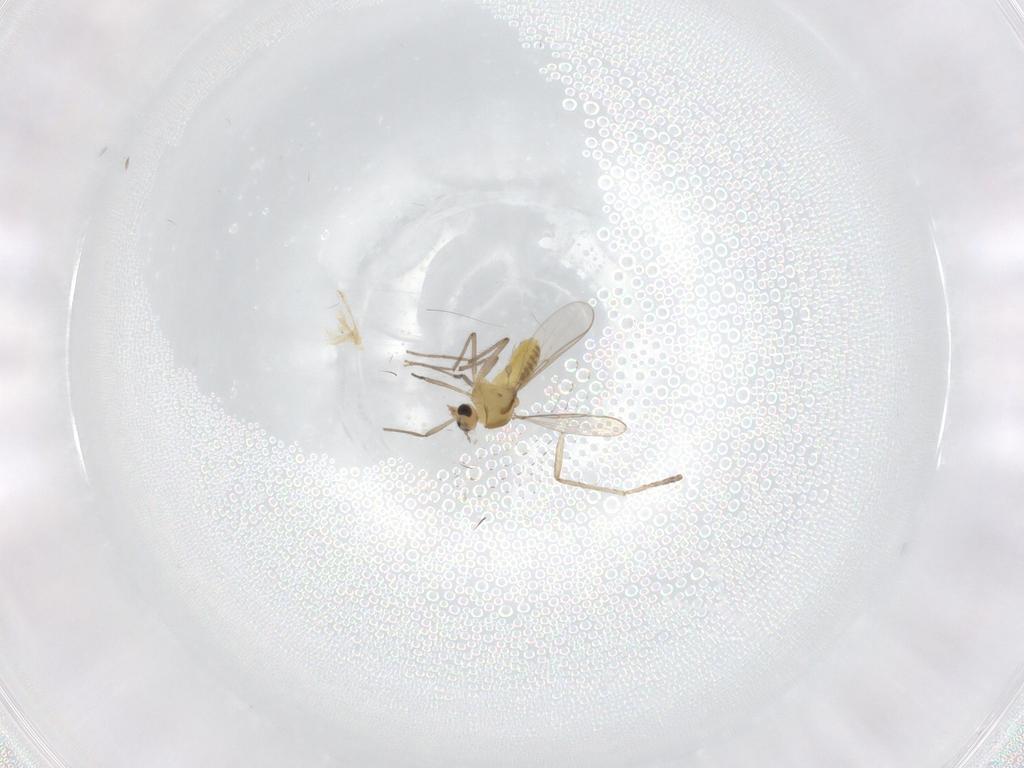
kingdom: Animalia
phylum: Arthropoda
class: Insecta
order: Diptera
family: Chironomidae
